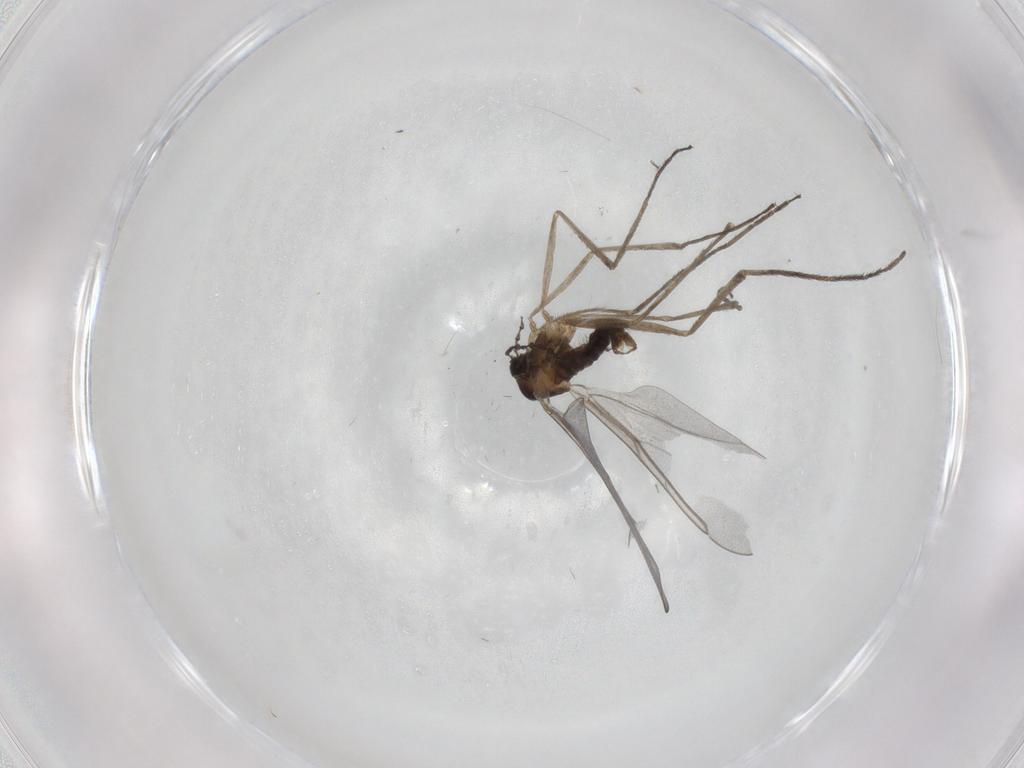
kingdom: Animalia
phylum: Arthropoda
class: Insecta
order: Diptera
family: Cecidomyiidae
